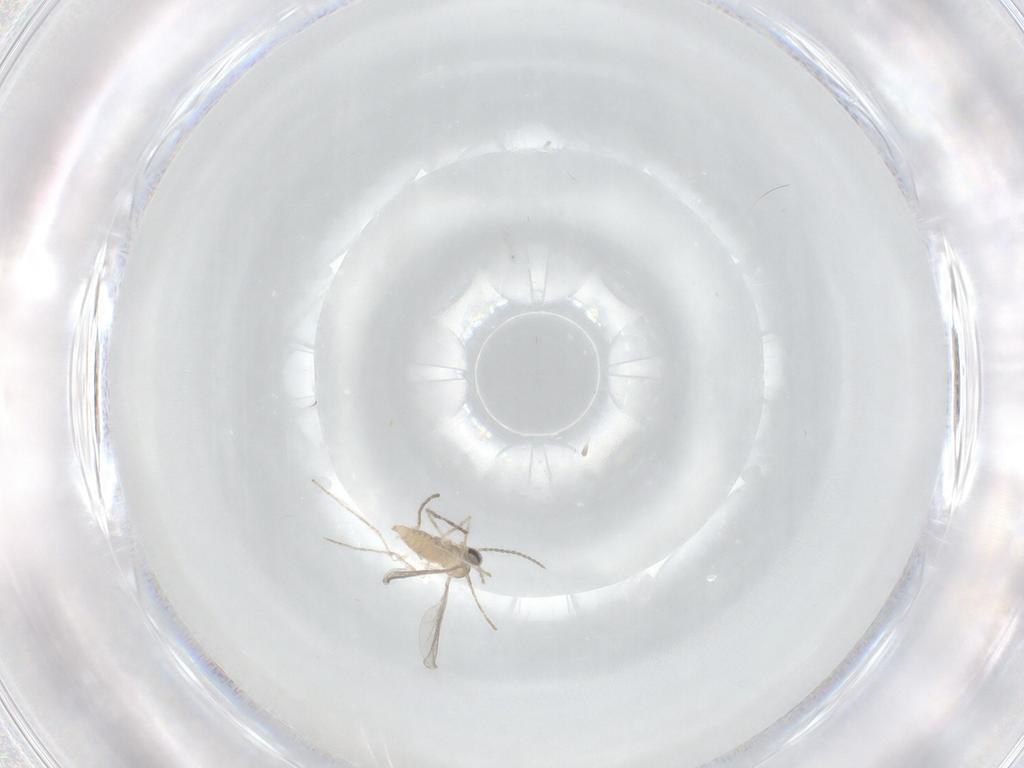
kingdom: Animalia
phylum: Arthropoda
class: Insecta
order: Diptera
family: Cecidomyiidae
